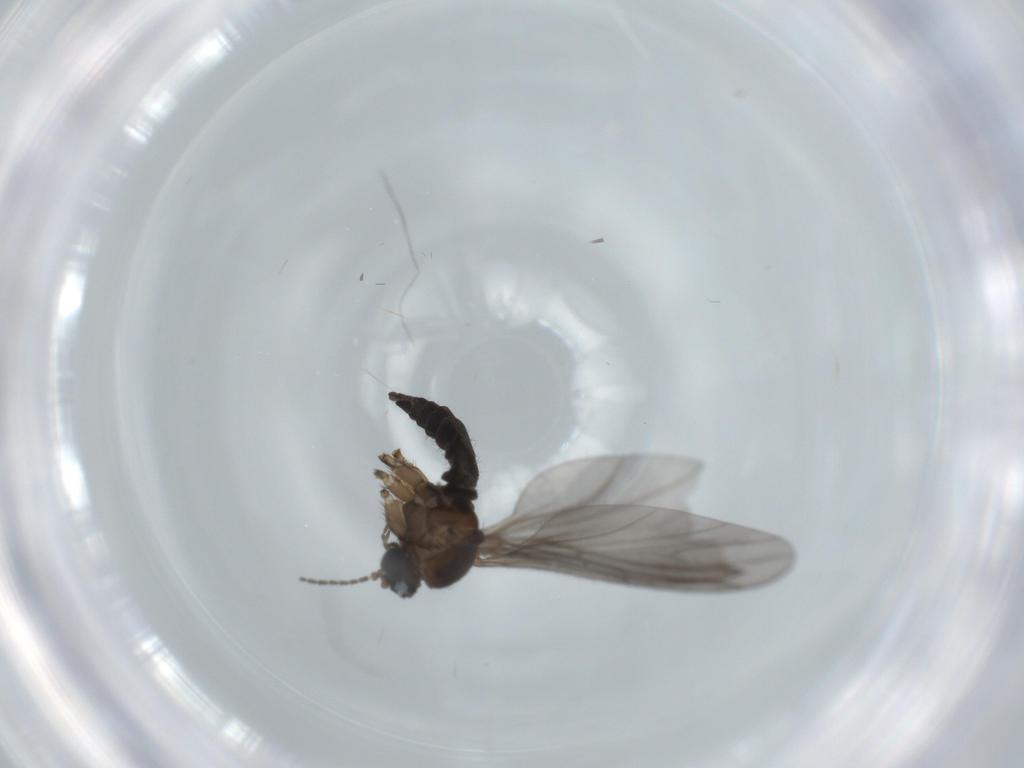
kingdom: Animalia
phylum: Arthropoda
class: Insecta
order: Diptera
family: Sciaridae
